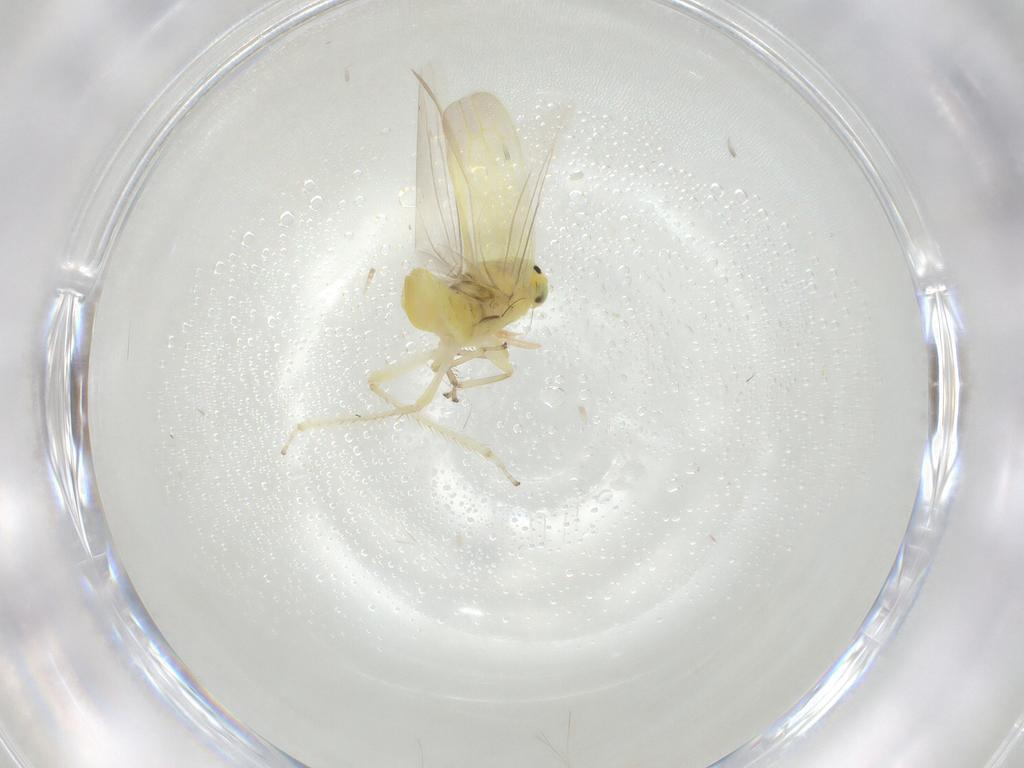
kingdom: Animalia
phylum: Arthropoda
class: Insecta
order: Hemiptera
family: Cicadellidae
